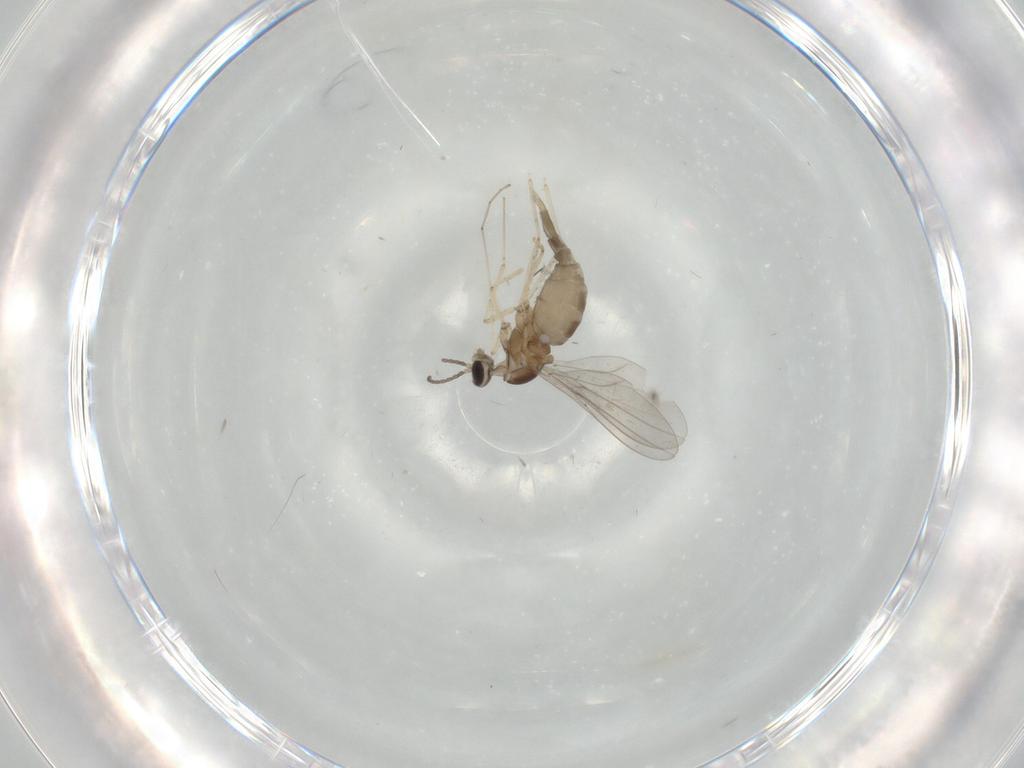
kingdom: Animalia
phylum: Arthropoda
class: Insecta
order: Diptera
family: Cecidomyiidae
